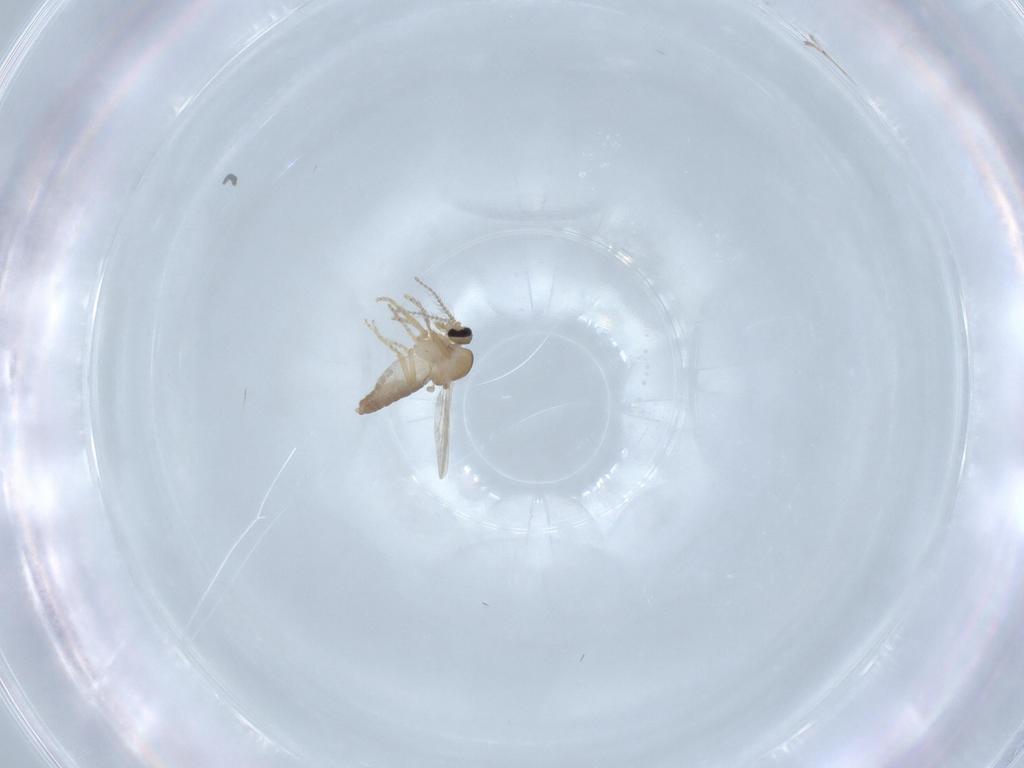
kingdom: Animalia
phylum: Arthropoda
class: Insecta
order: Diptera
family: Ceratopogonidae
